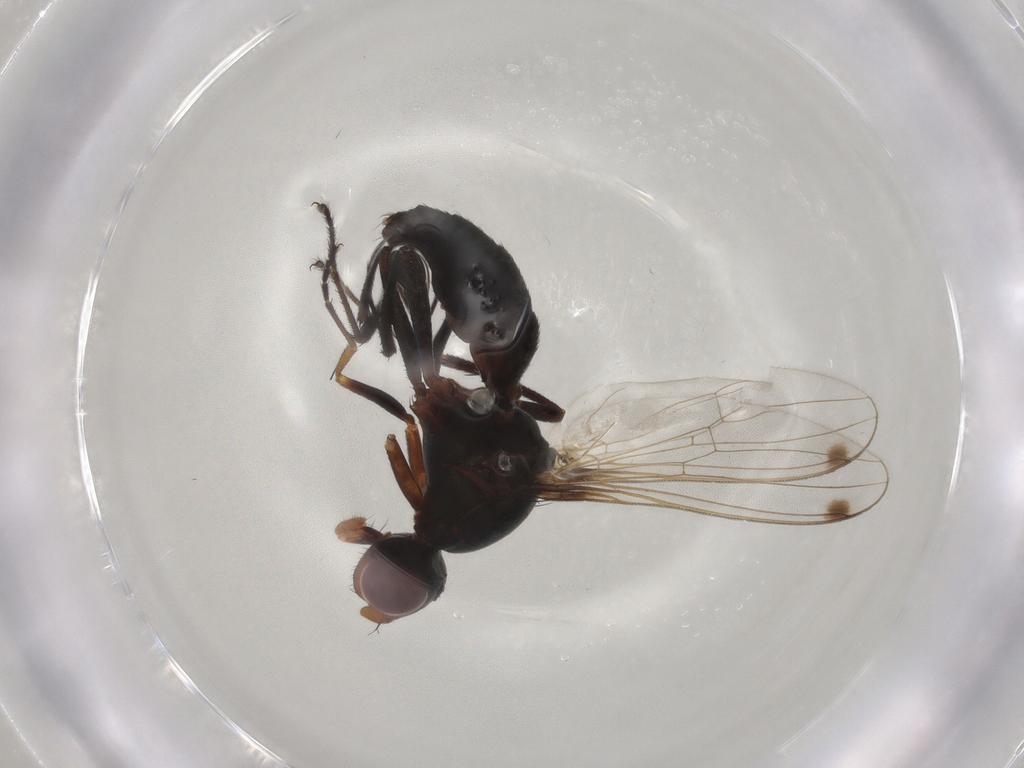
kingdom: Animalia
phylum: Arthropoda
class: Insecta
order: Diptera
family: Sepsidae
